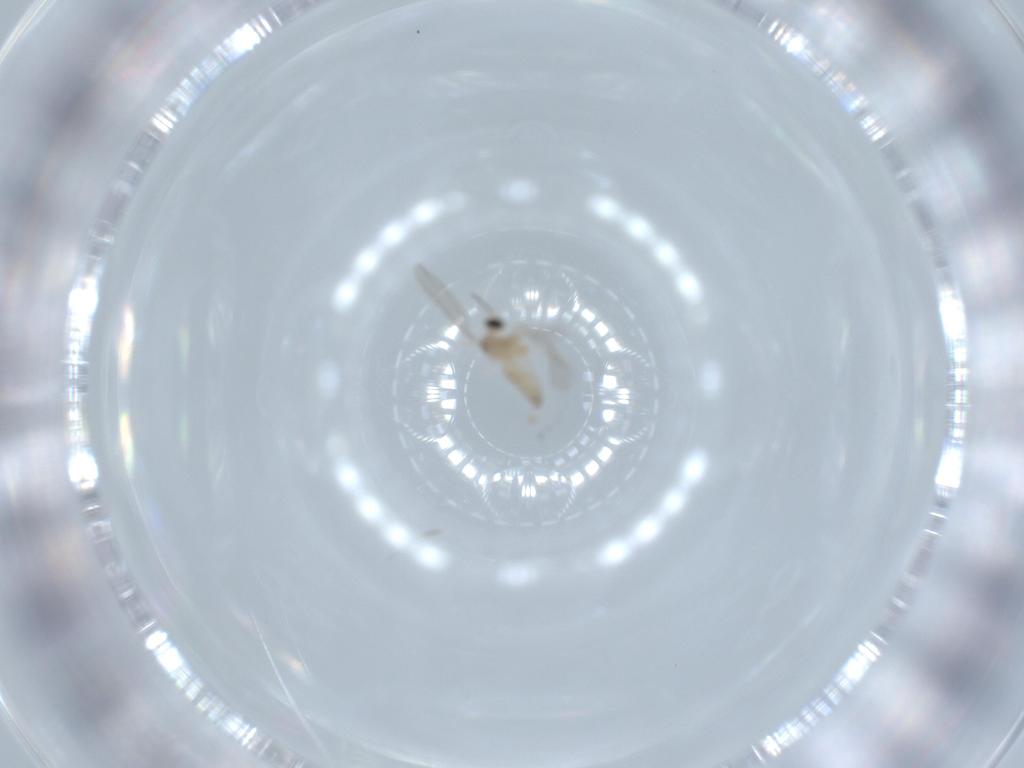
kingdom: Animalia
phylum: Arthropoda
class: Insecta
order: Diptera
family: Cecidomyiidae
